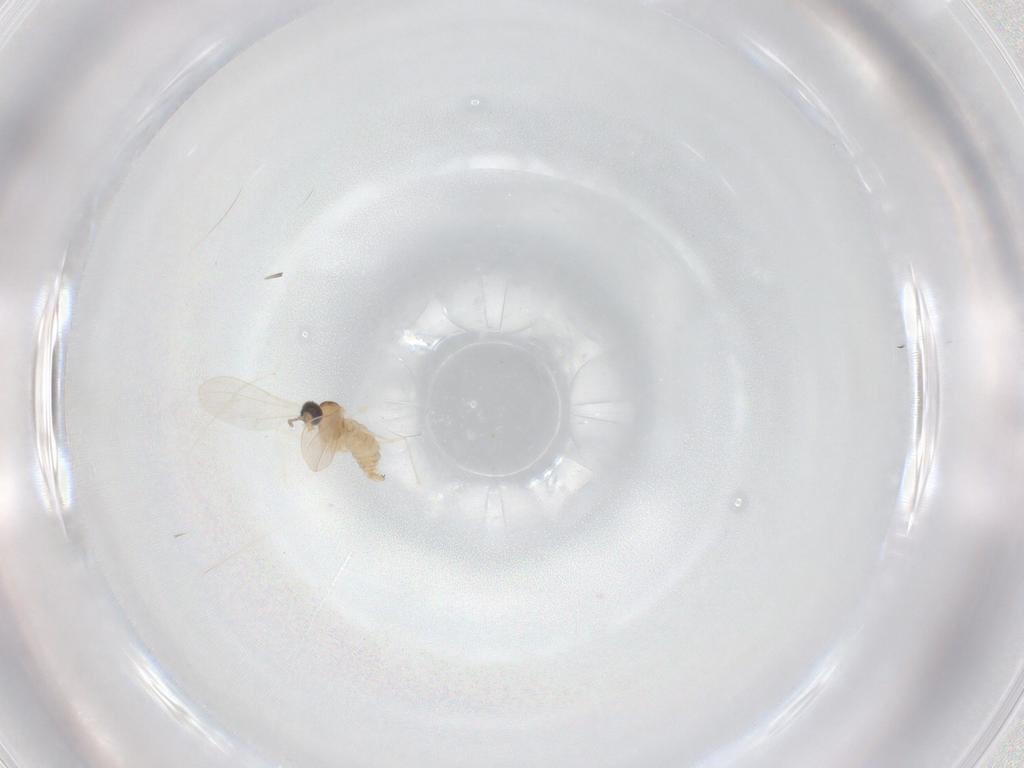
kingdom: Animalia
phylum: Arthropoda
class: Insecta
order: Diptera
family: Cecidomyiidae
